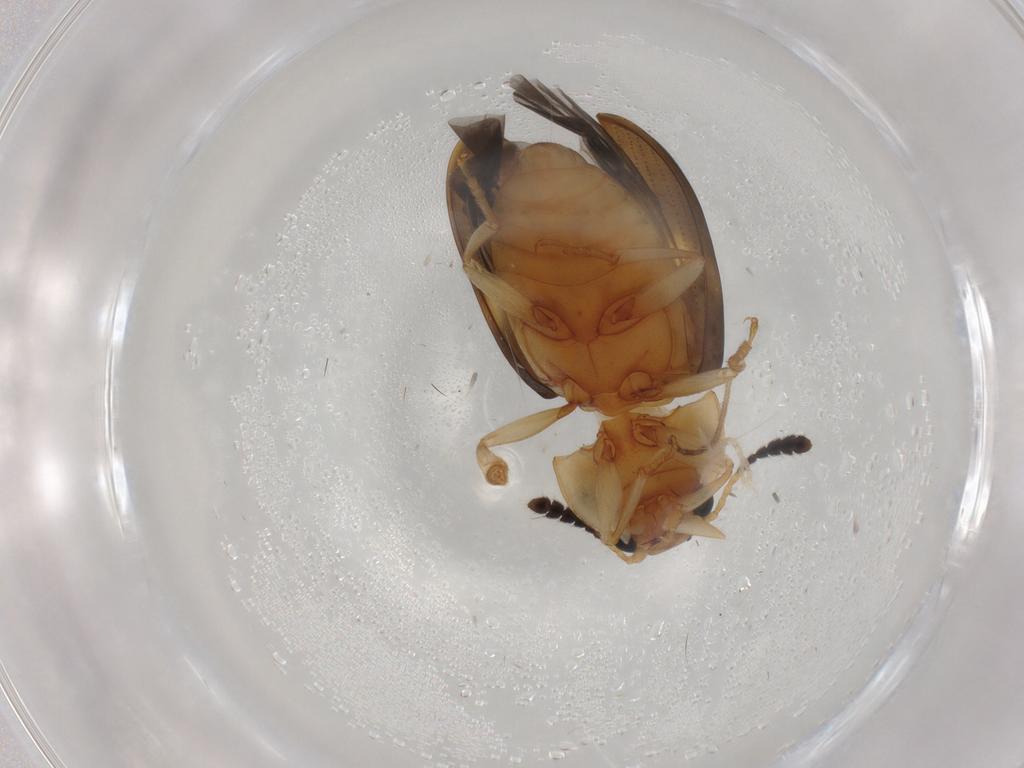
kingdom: Animalia
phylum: Arthropoda
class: Insecta
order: Coleoptera
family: Erotylidae
